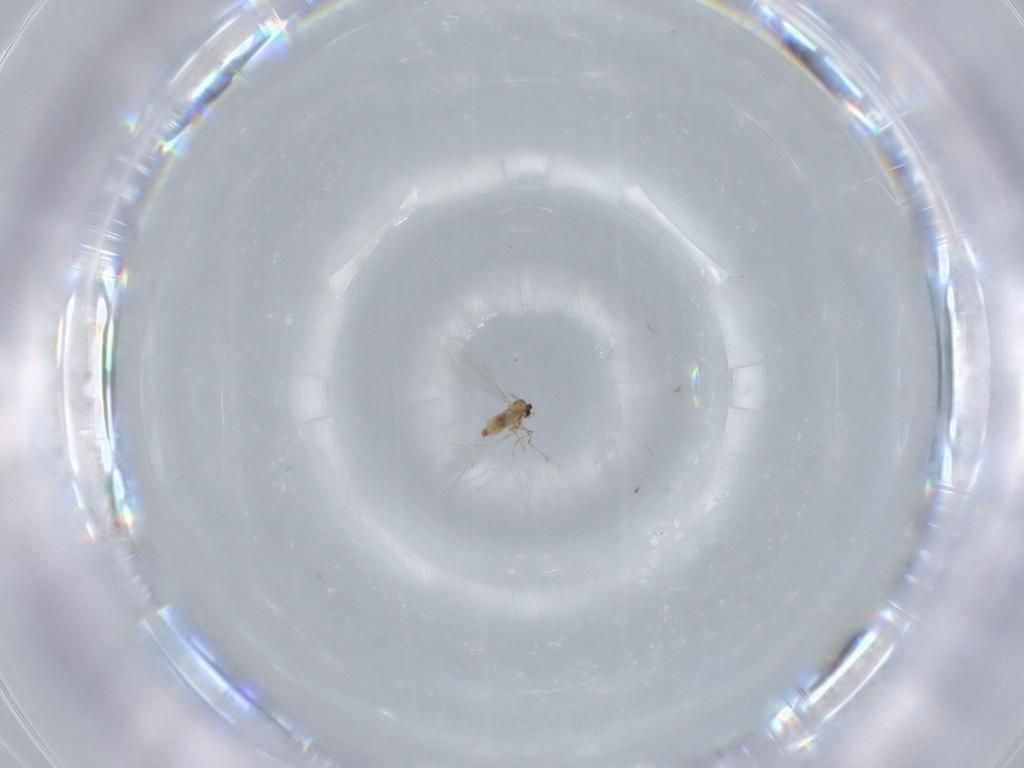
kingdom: Animalia
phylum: Arthropoda
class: Insecta
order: Diptera
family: Cecidomyiidae
